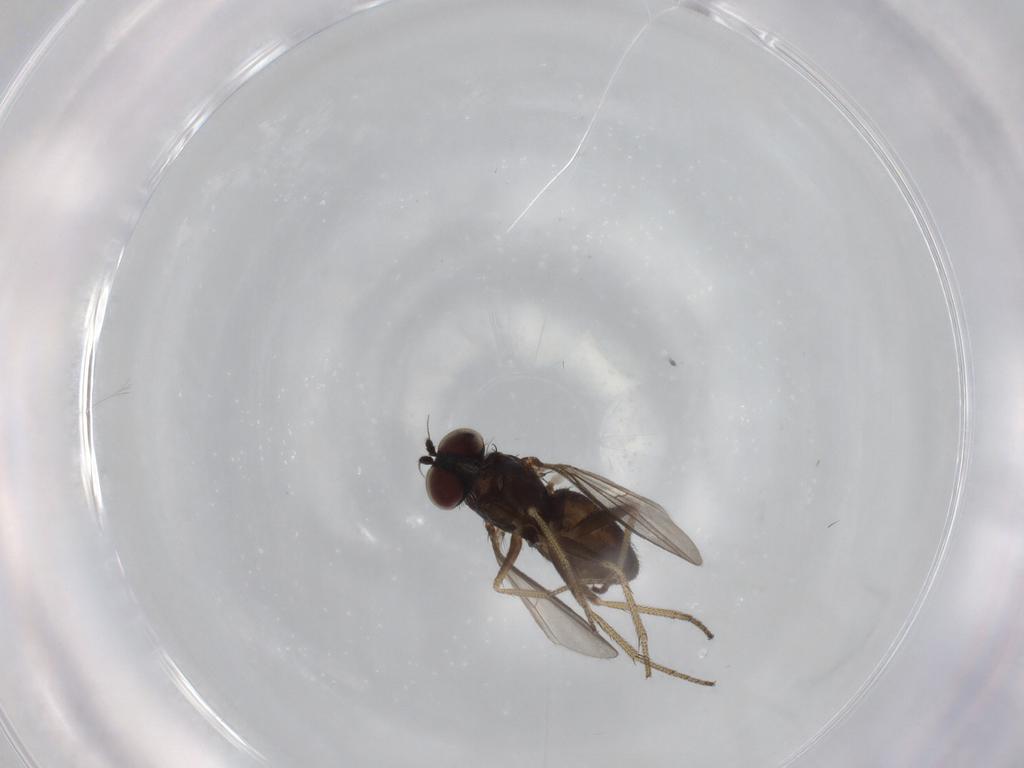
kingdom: Animalia
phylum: Arthropoda
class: Insecta
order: Diptera
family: Dolichopodidae
